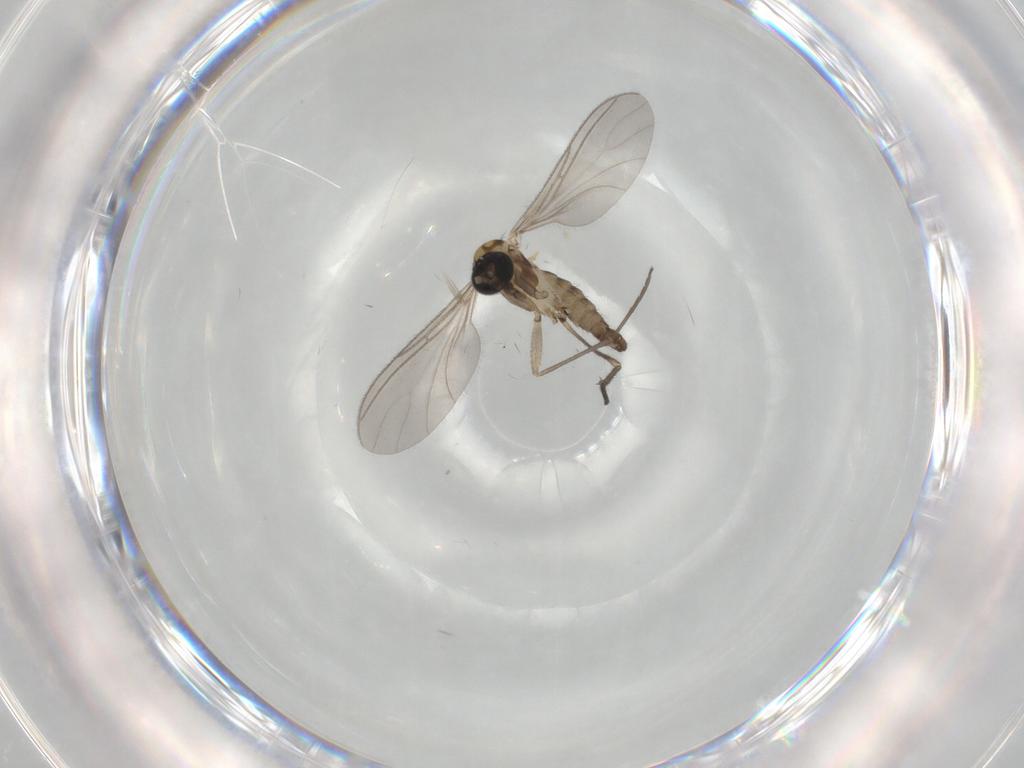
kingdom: Animalia
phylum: Arthropoda
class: Insecta
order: Diptera
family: Sciaridae
